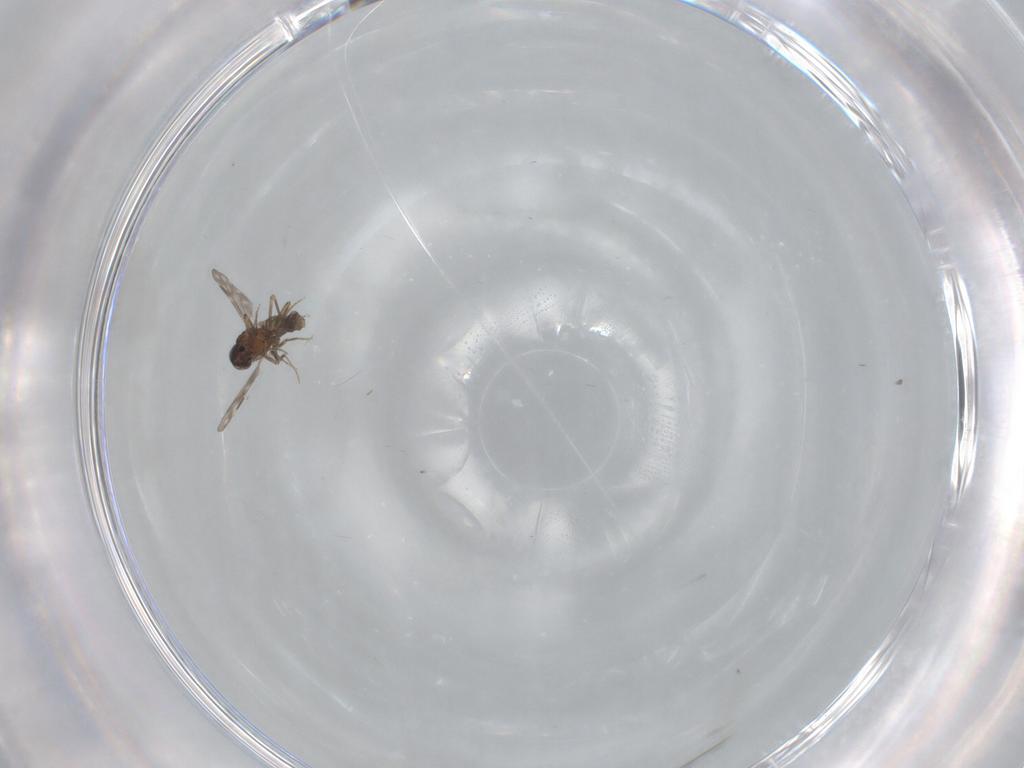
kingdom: Animalia
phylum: Arthropoda
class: Insecta
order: Diptera
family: Ceratopogonidae
